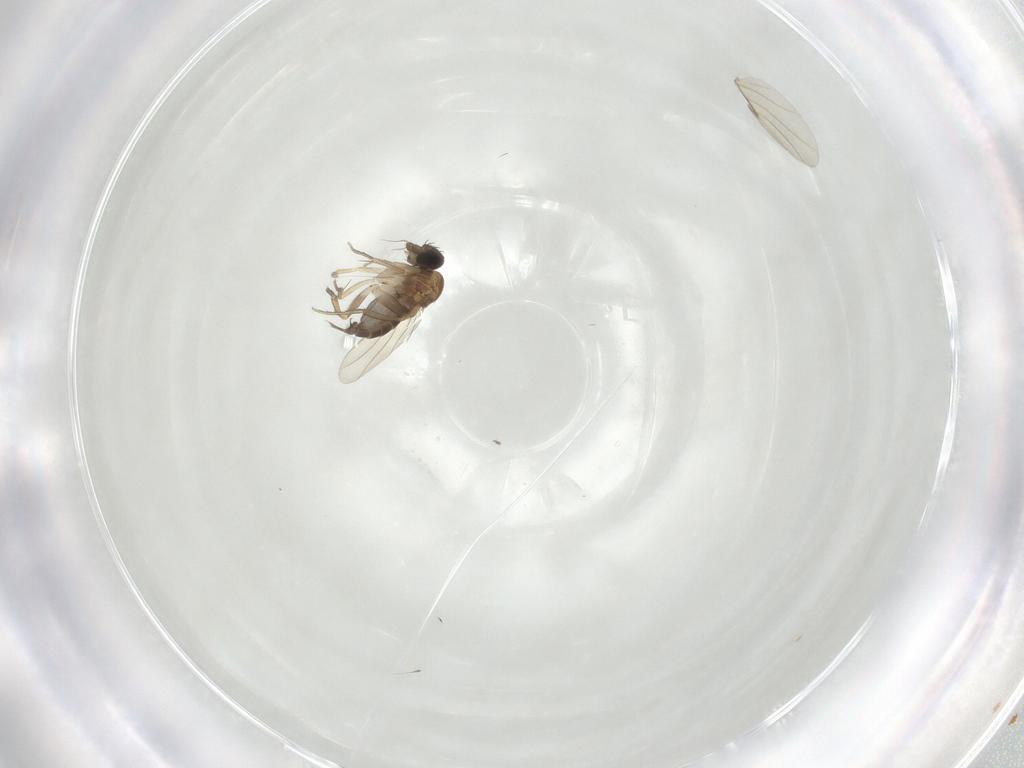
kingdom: Animalia
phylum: Arthropoda
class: Insecta
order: Diptera
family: Phoridae
